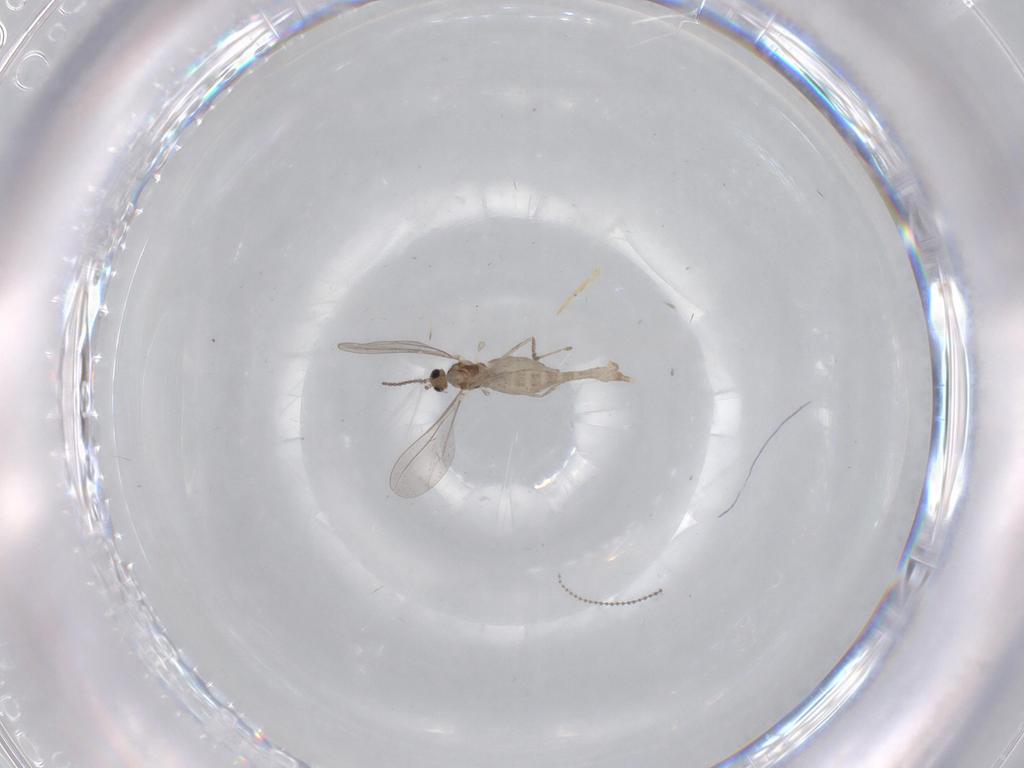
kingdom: Animalia
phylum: Arthropoda
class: Insecta
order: Diptera
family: Cecidomyiidae
